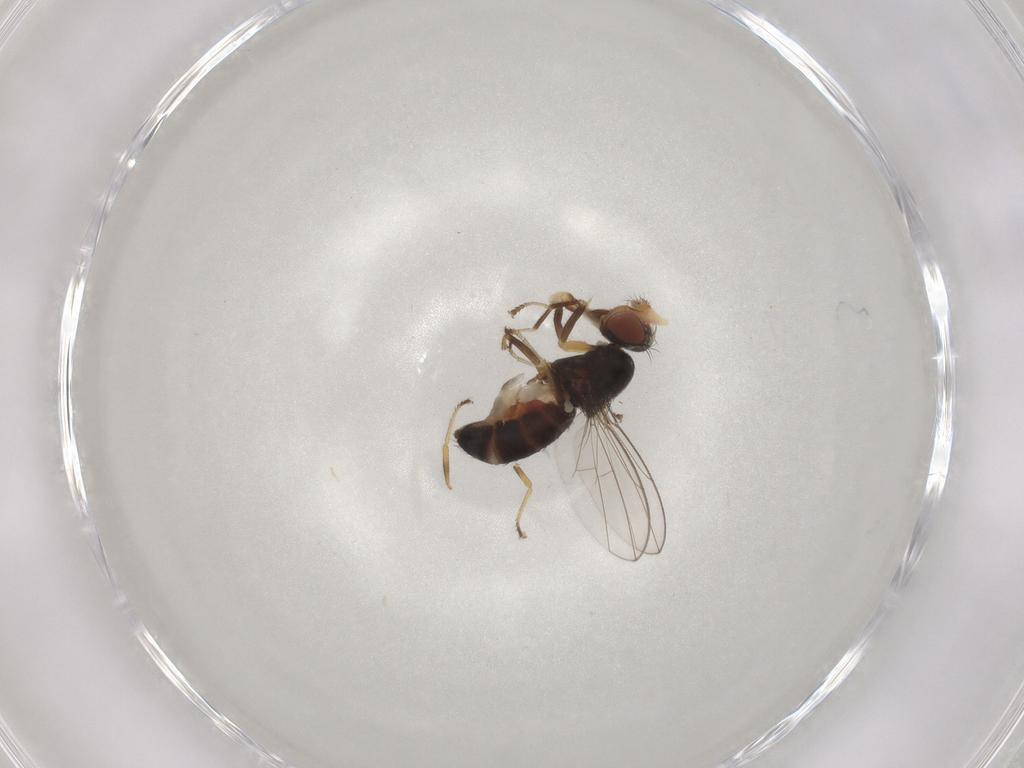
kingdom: Animalia
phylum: Arthropoda
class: Insecta
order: Diptera
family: Ephydridae
